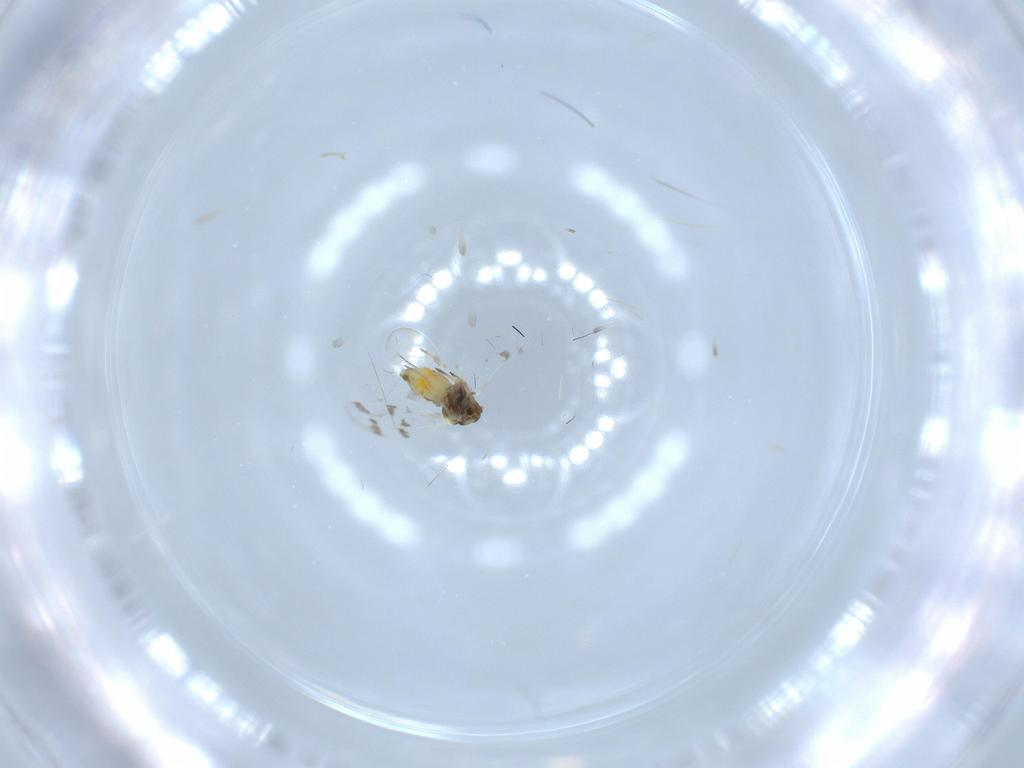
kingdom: Animalia
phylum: Arthropoda
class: Insecta
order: Hemiptera
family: Aleyrodidae
